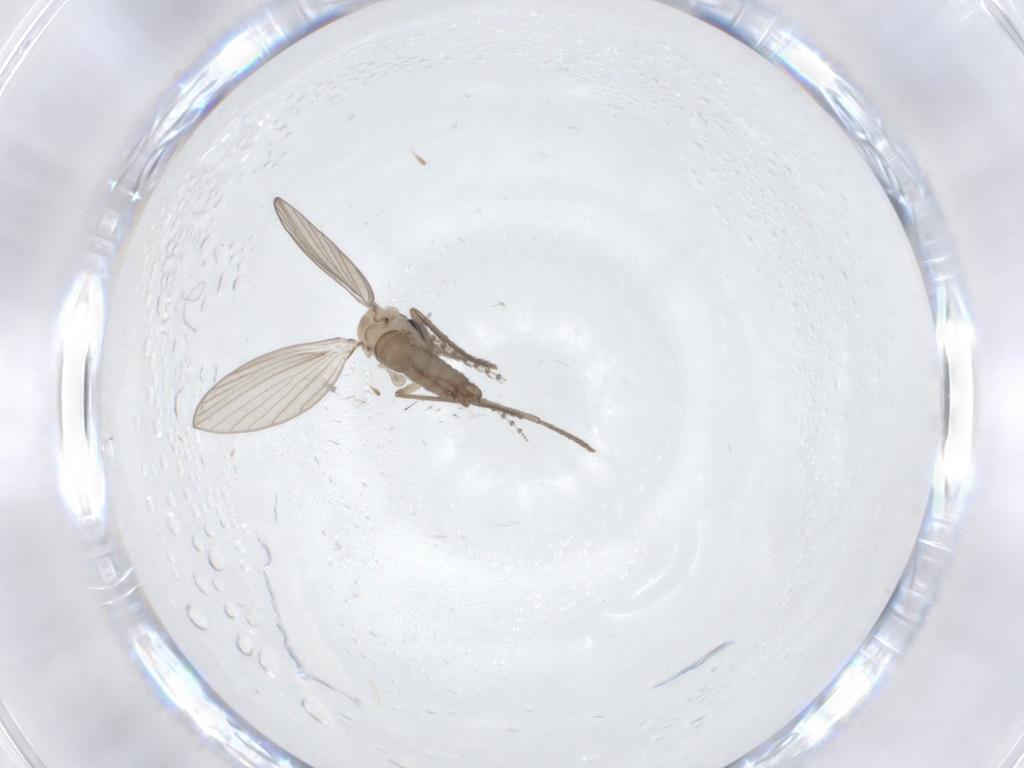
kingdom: Animalia
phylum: Arthropoda
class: Insecta
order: Diptera
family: Psychodidae
